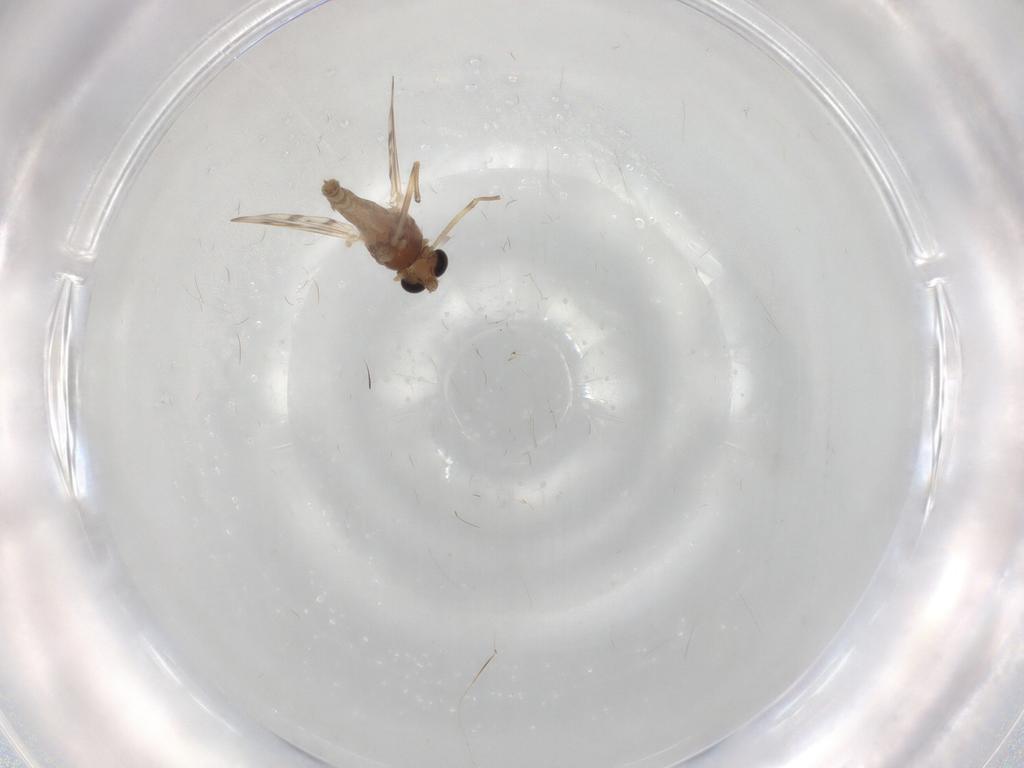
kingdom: Animalia
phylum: Arthropoda
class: Insecta
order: Diptera
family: Chironomidae
